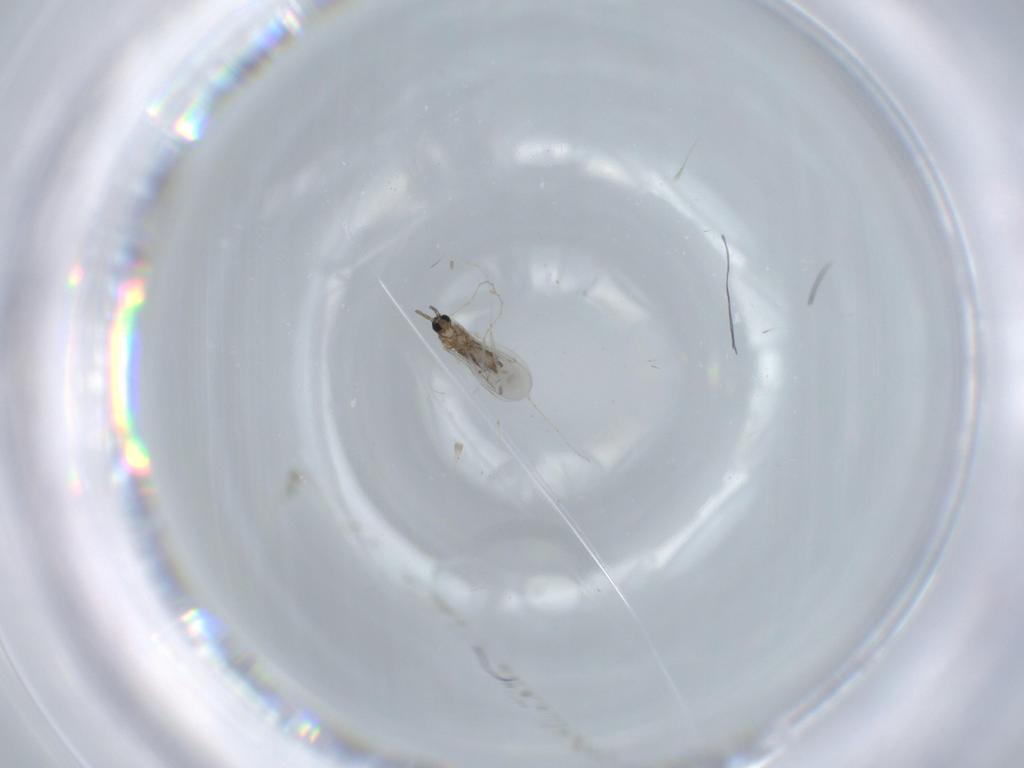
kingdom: Animalia
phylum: Arthropoda
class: Insecta
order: Diptera
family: Cecidomyiidae
